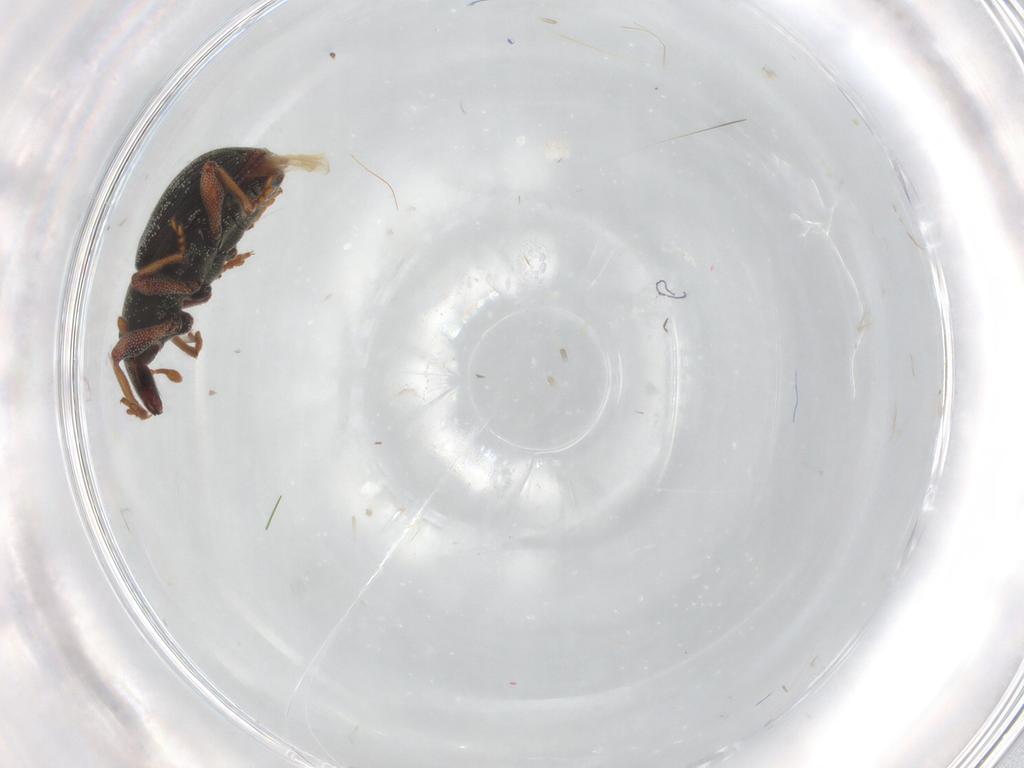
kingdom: Animalia
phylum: Arthropoda
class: Insecta
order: Coleoptera
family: Curculionidae
